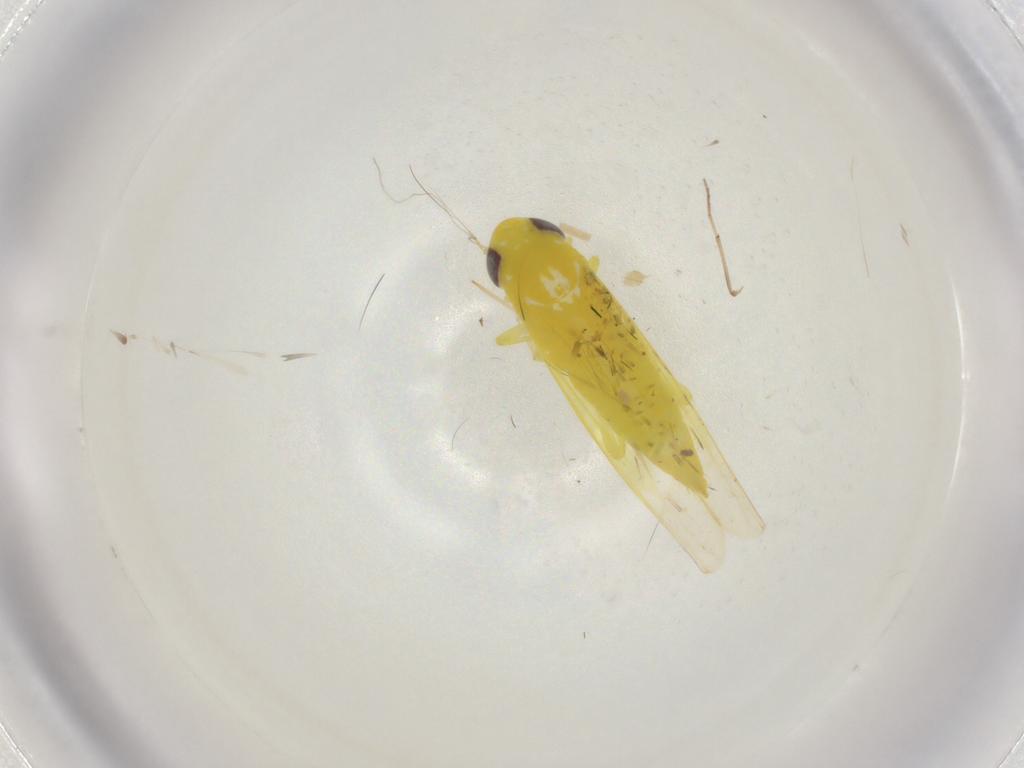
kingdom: Animalia
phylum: Arthropoda
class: Insecta
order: Hemiptera
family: Cicadellidae
